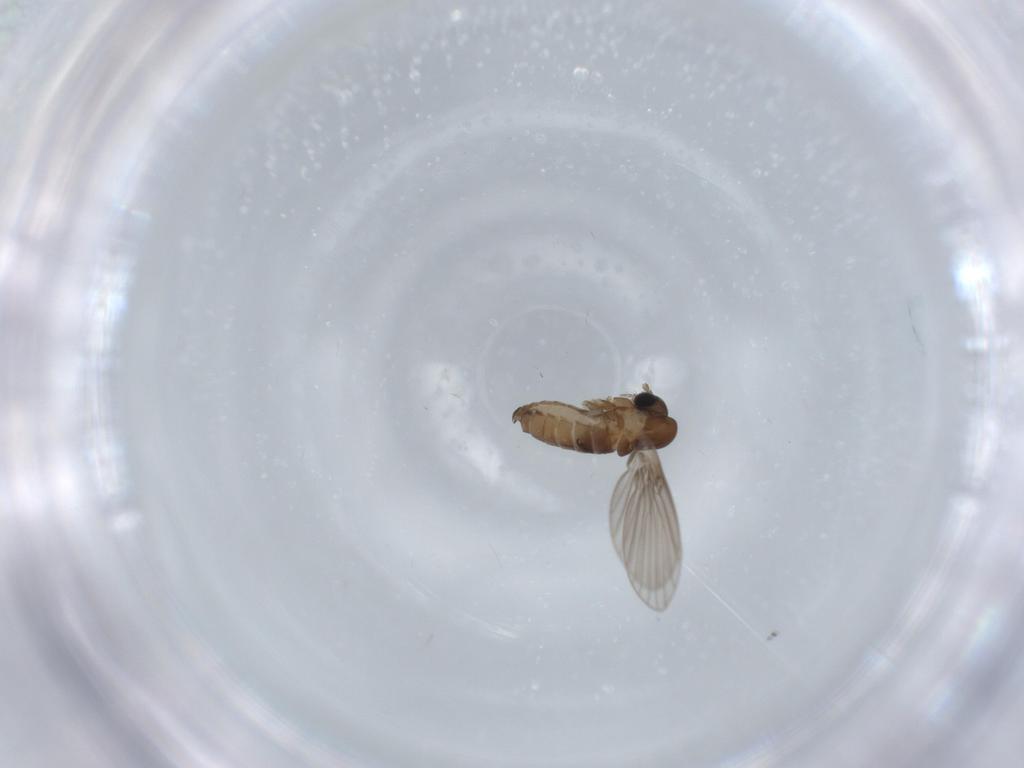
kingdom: Animalia
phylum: Arthropoda
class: Insecta
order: Diptera
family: Psychodidae
